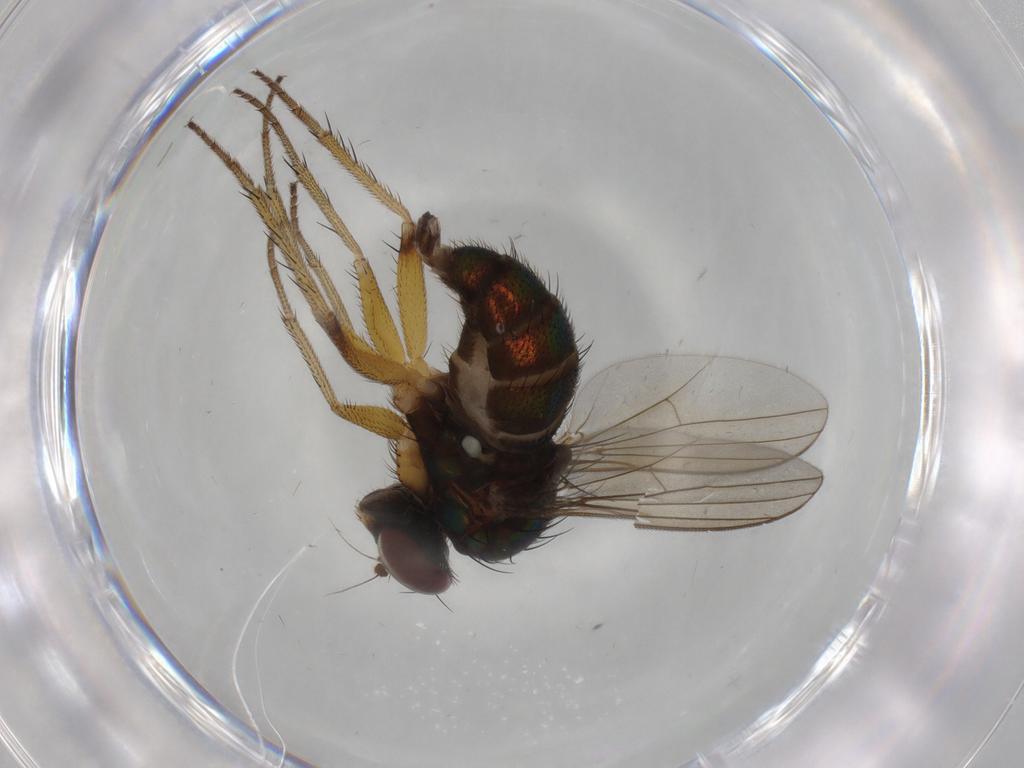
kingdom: Animalia
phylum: Arthropoda
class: Insecta
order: Diptera
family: Dolichopodidae
